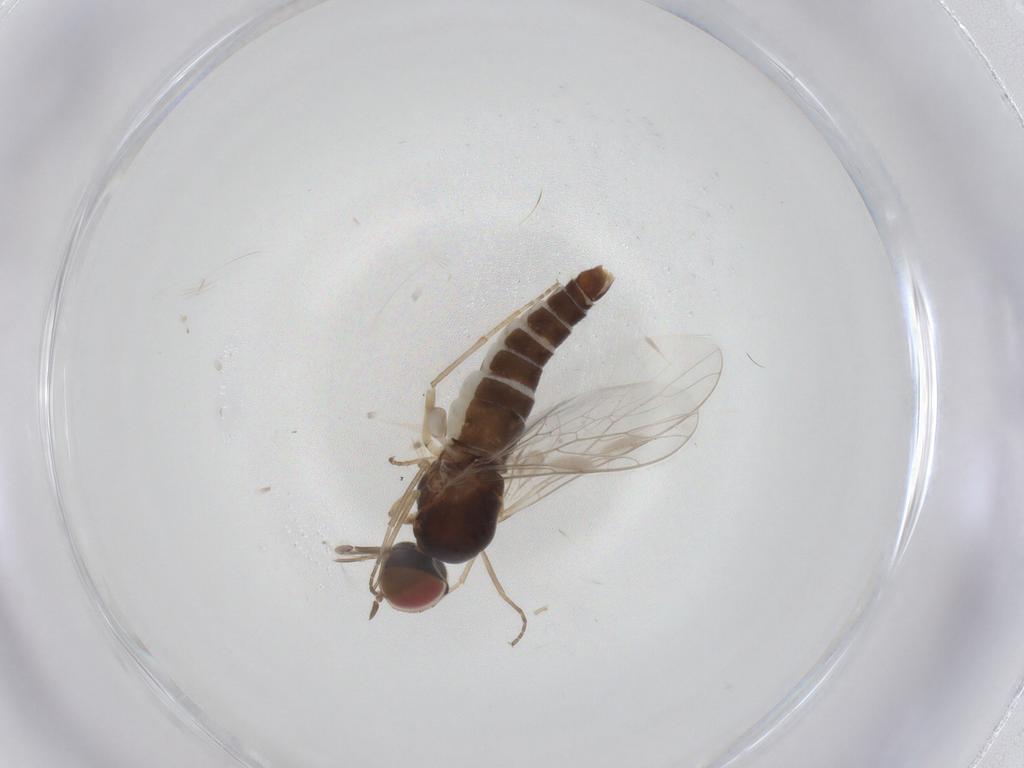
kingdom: Animalia
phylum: Arthropoda
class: Insecta
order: Diptera
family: Scenopinidae
